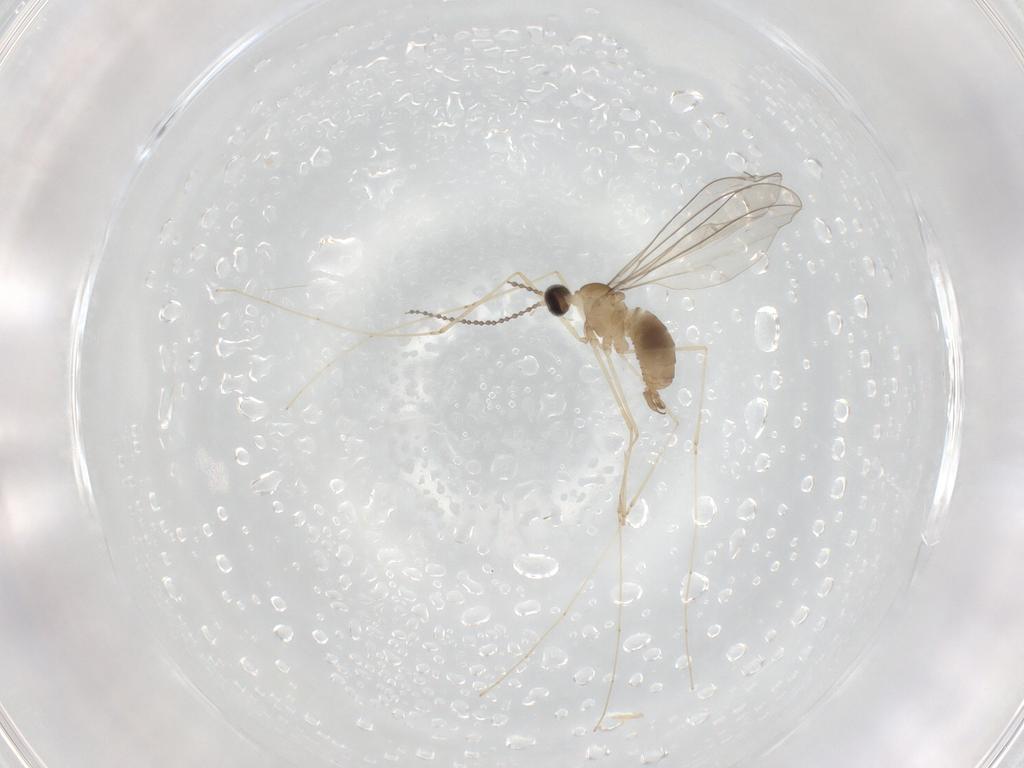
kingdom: Animalia
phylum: Arthropoda
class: Insecta
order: Diptera
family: Cecidomyiidae
